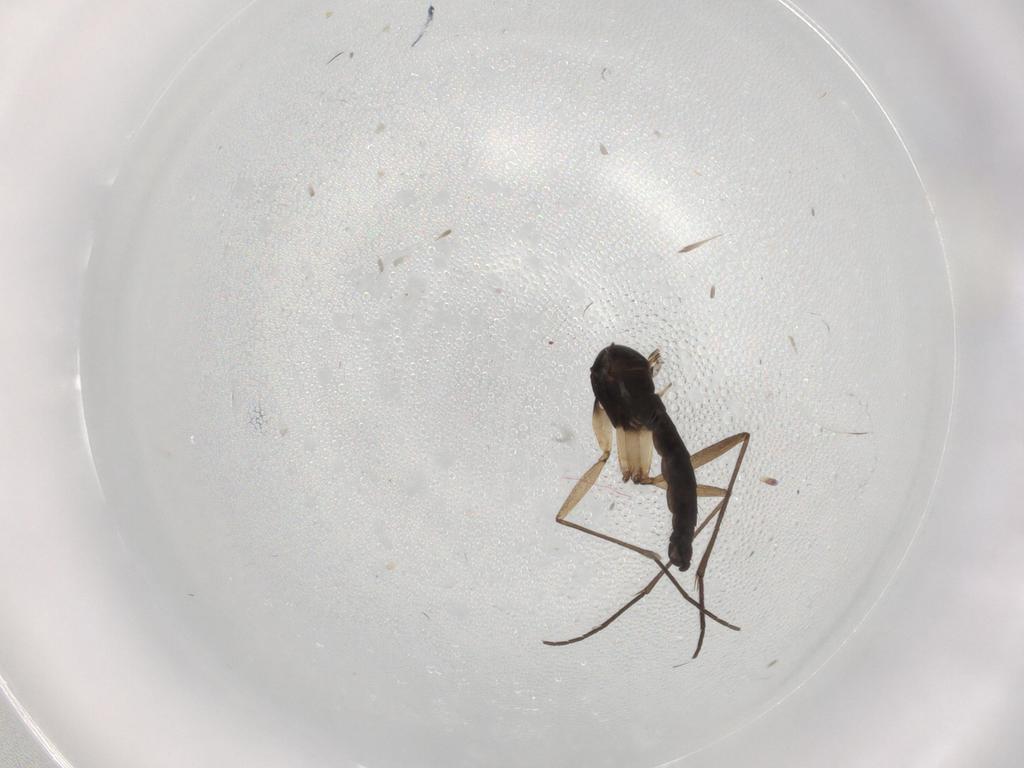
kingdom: Animalia
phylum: Arthropoda
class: Insecta
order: Diptera
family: Sciaridae
